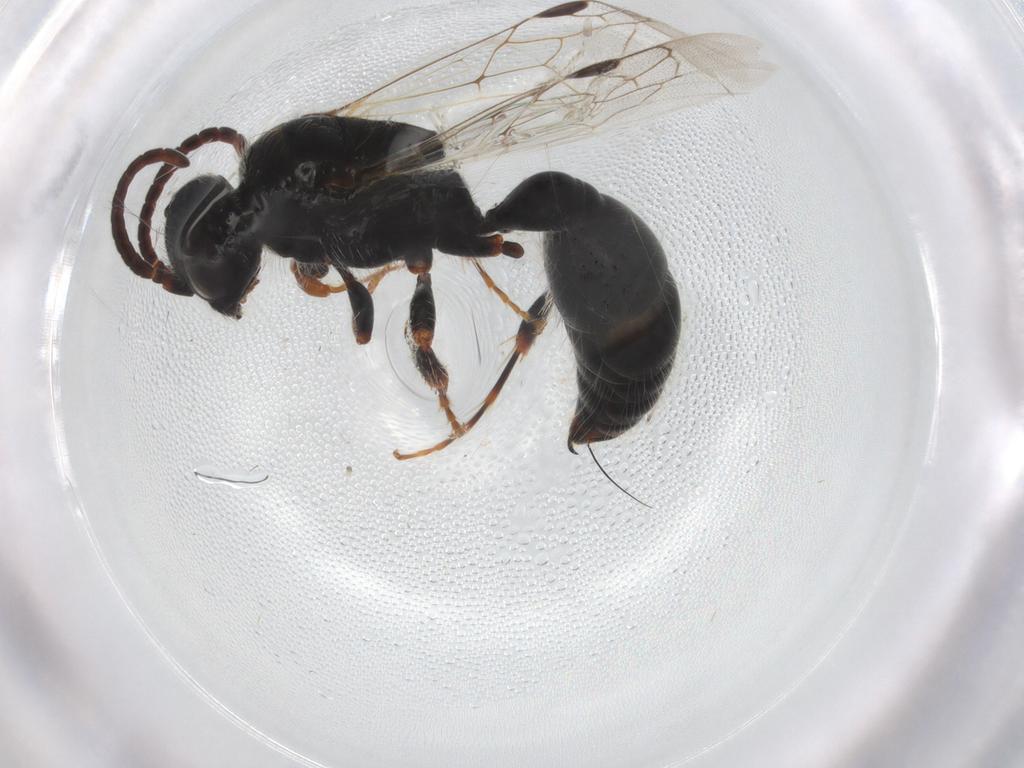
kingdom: Animalia
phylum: Arthropoda
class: Insecta
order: Hymenoptera
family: Tiphiidae
